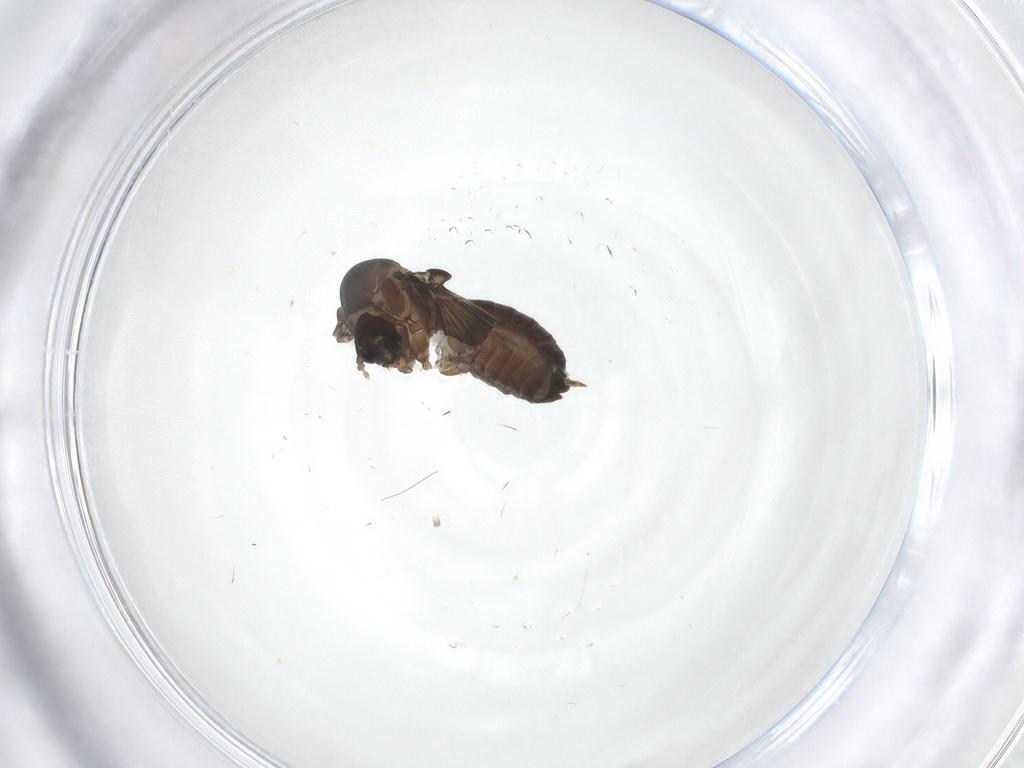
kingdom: Animalia
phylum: Arthropoda
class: Insecta
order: Diptera
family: Psychodidae
